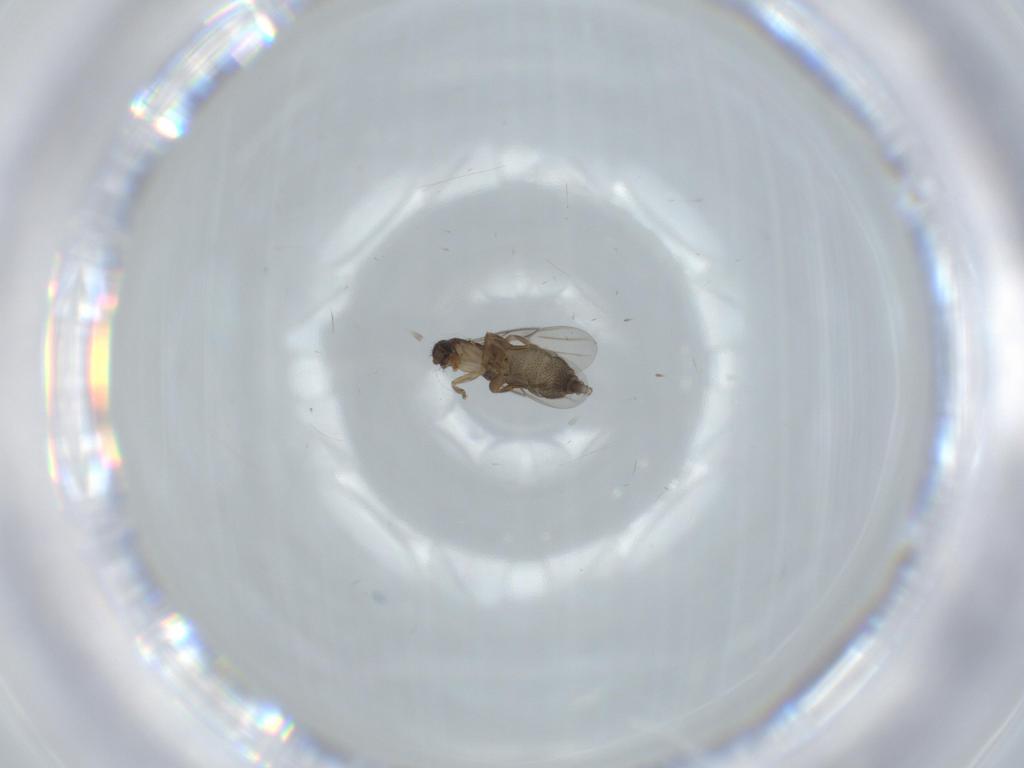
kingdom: Animalia
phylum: Arthropoda
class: Insecta
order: Diptera
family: Phoridae
